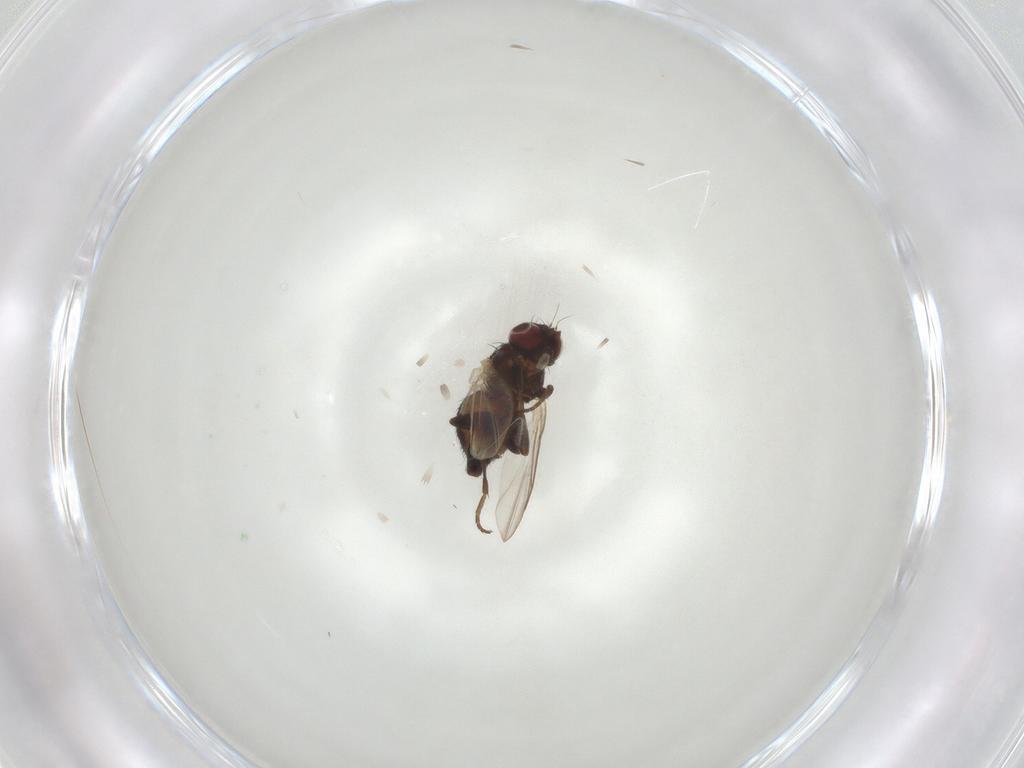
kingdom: Animalia
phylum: Arthropoda
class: Insecta
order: Diptera
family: Agromyzidae
